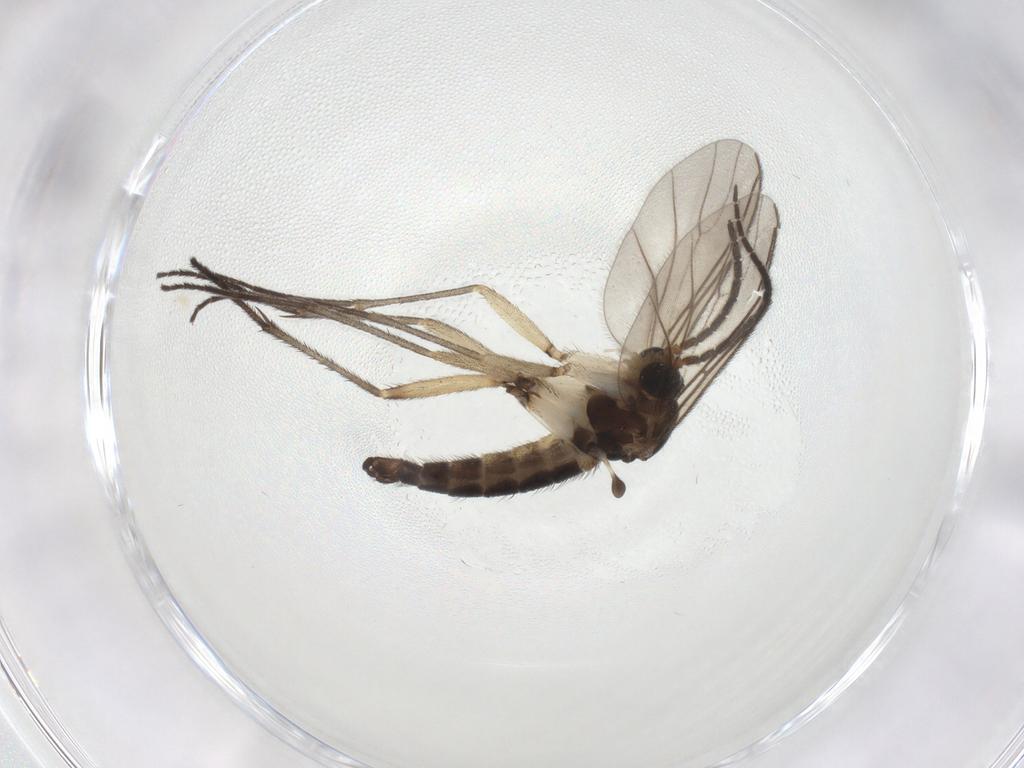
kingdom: Animalia
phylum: Arthropoda
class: Insecta
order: Diptera
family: Sciaridae
